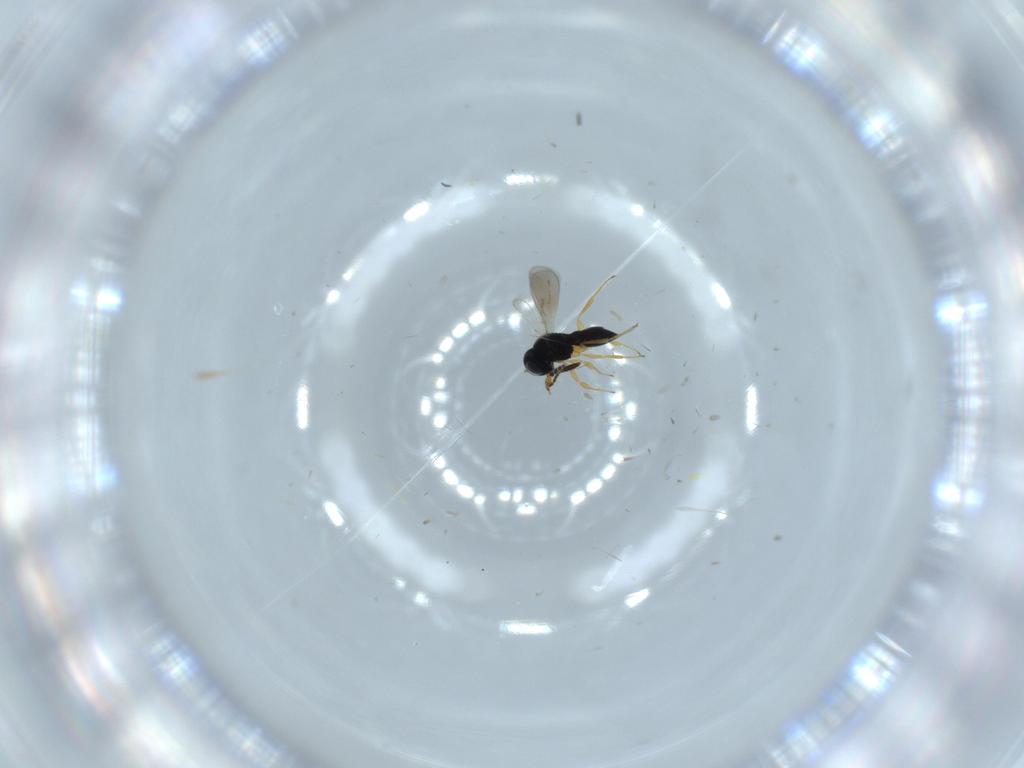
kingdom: Animalia
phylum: Arthropoda
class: Insecta
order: Hymenoptera
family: Scelionidae
